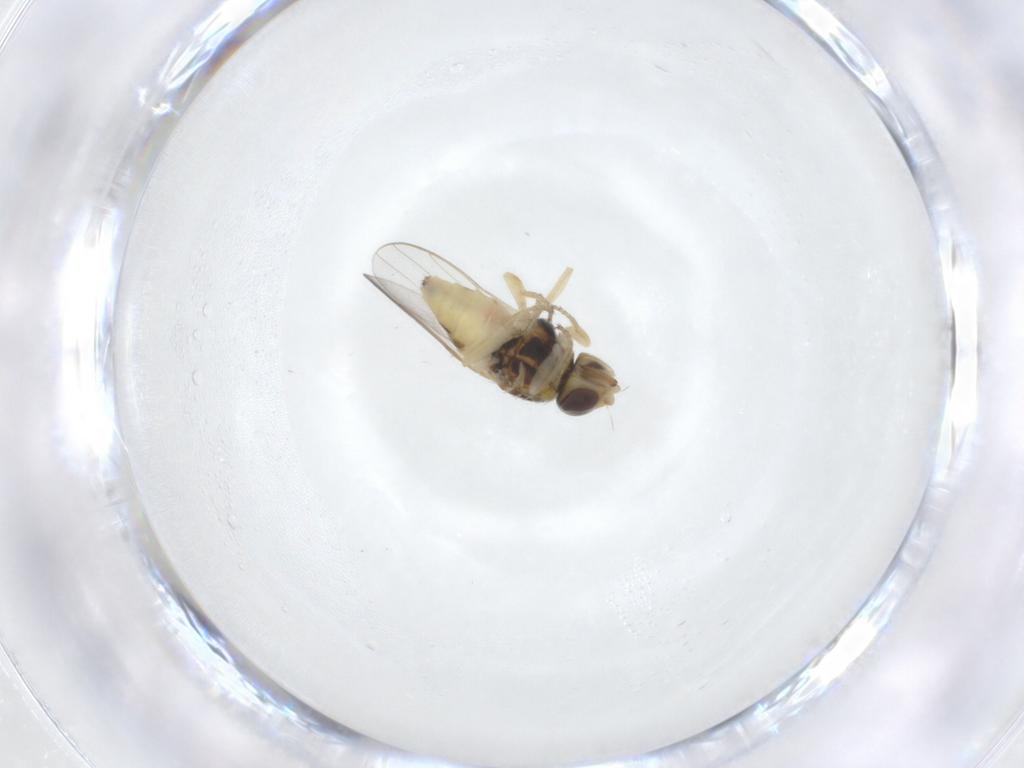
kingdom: Animalia
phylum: Arthropoda
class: Insecta
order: Diptera
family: Chloropidae
